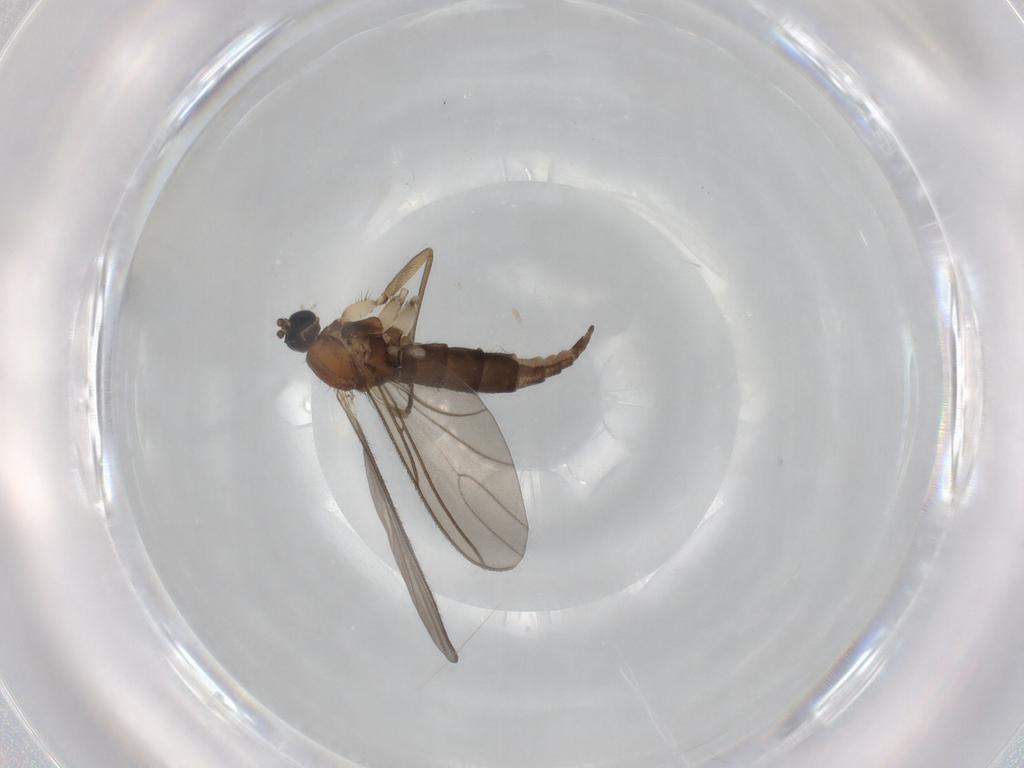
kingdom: Animalia
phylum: Arthropoda
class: Insecta
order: Diptera
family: Sciaridae
